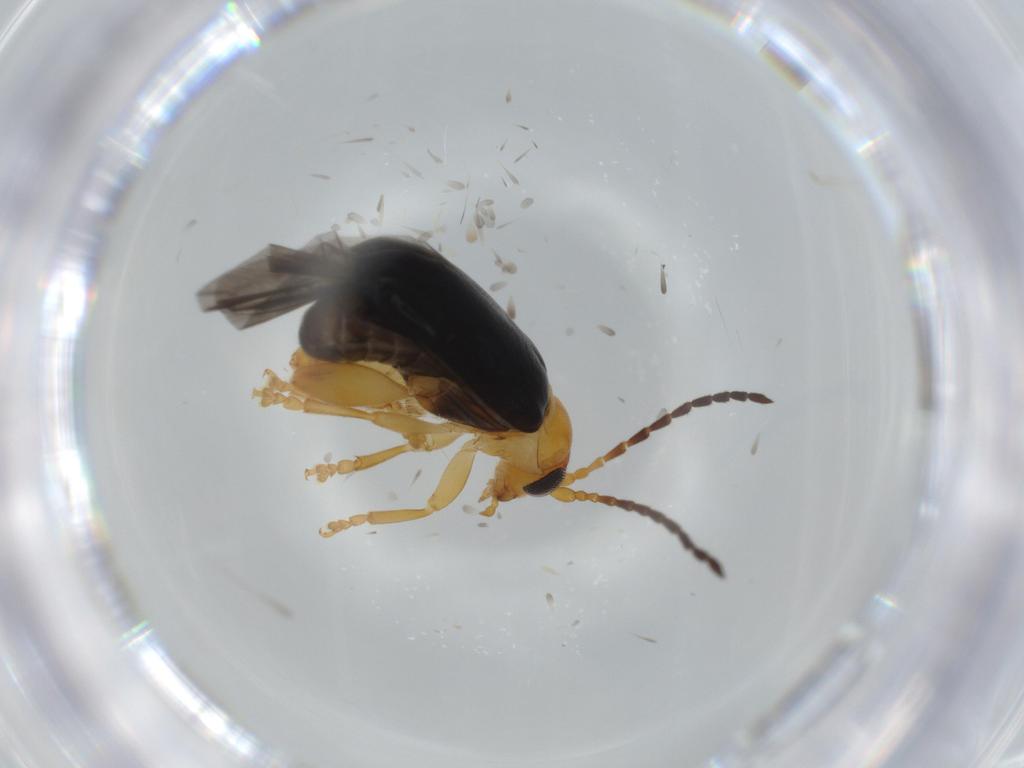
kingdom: Animalia
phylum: Arthropoda
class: Insecta
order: Coleoptera
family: Chrysomelidae
